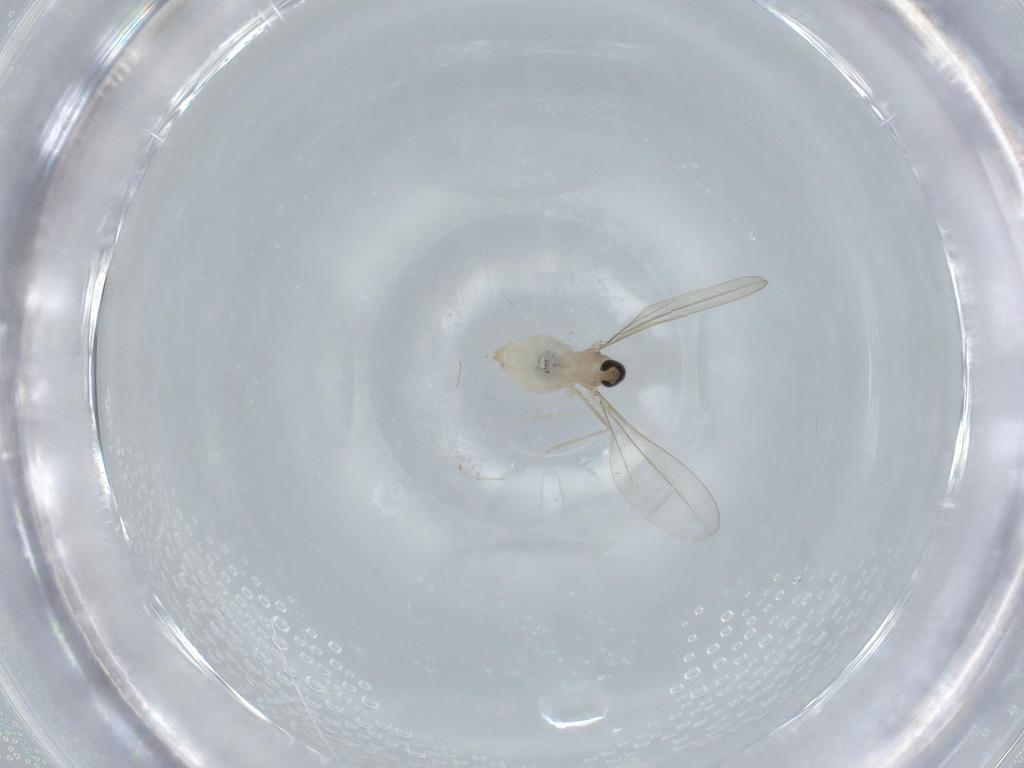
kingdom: Animalia
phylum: Arthropoda
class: Insecta
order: Diptera
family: Cecidomyiidae
